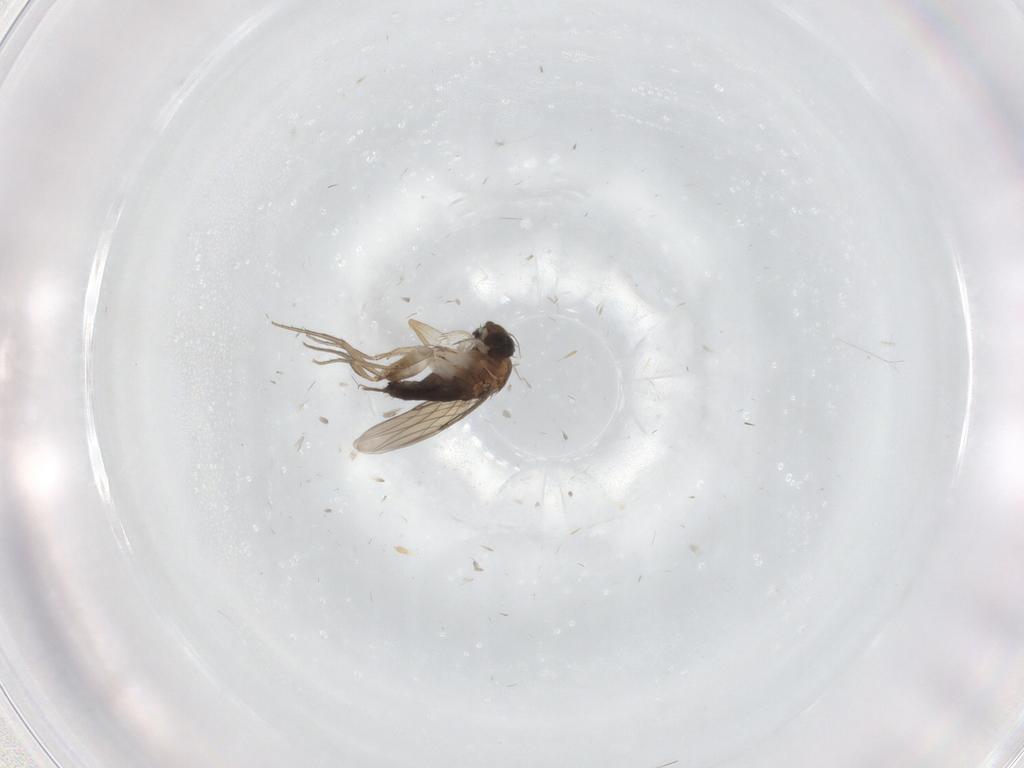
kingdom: Animalia
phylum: Arthropoda
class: Insecta
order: Diptera
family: Phoridae
